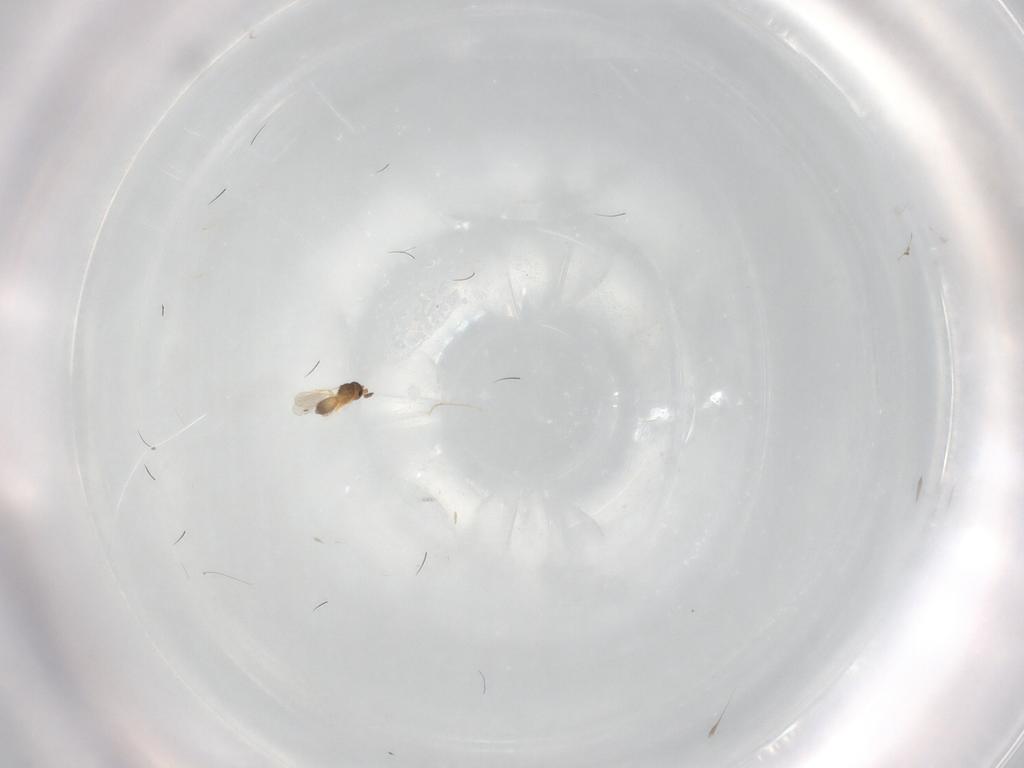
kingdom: Animalia
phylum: Arthropoda
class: Insecta
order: Hymenoptera
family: Platygastridae
